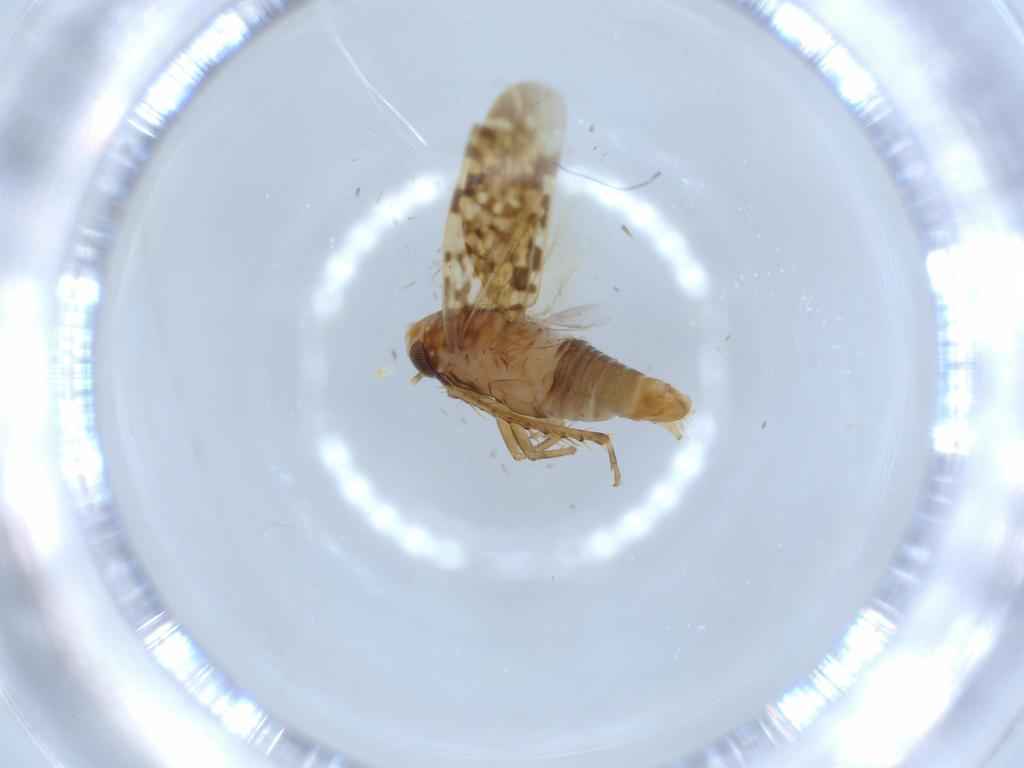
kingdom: Animalia
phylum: Arthropoda
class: Insecta
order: Hemiptera
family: Cicadellidae
